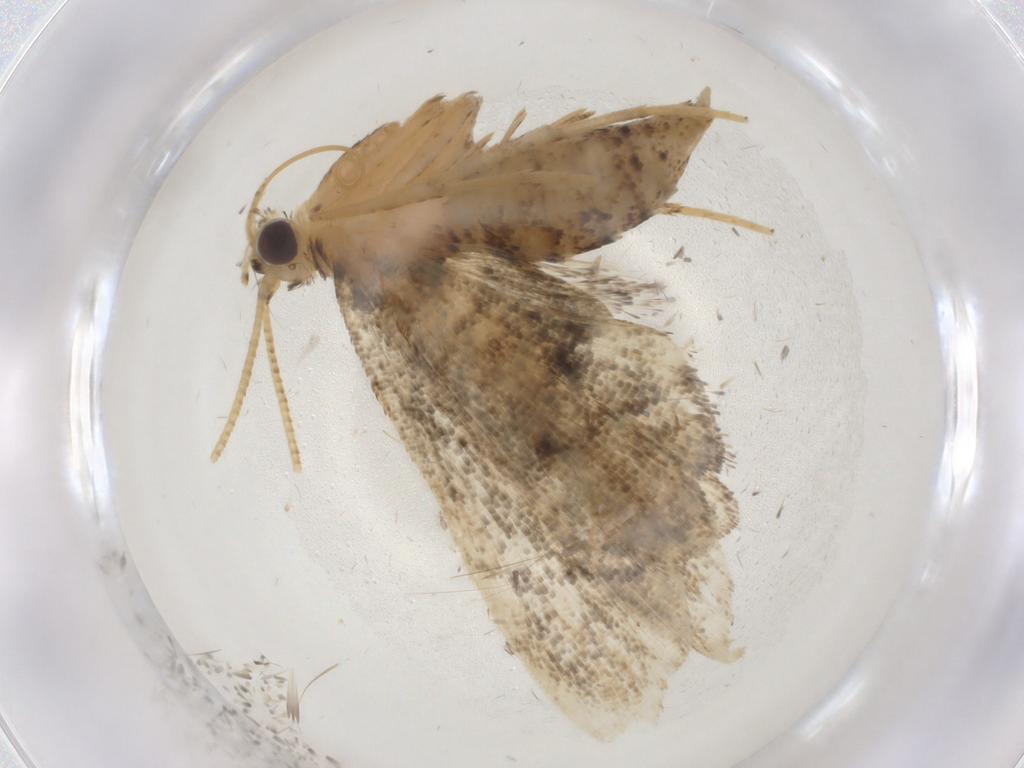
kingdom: Animalia
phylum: Arthropoda
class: Insecta
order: Lepidoptera
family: Crambidae
